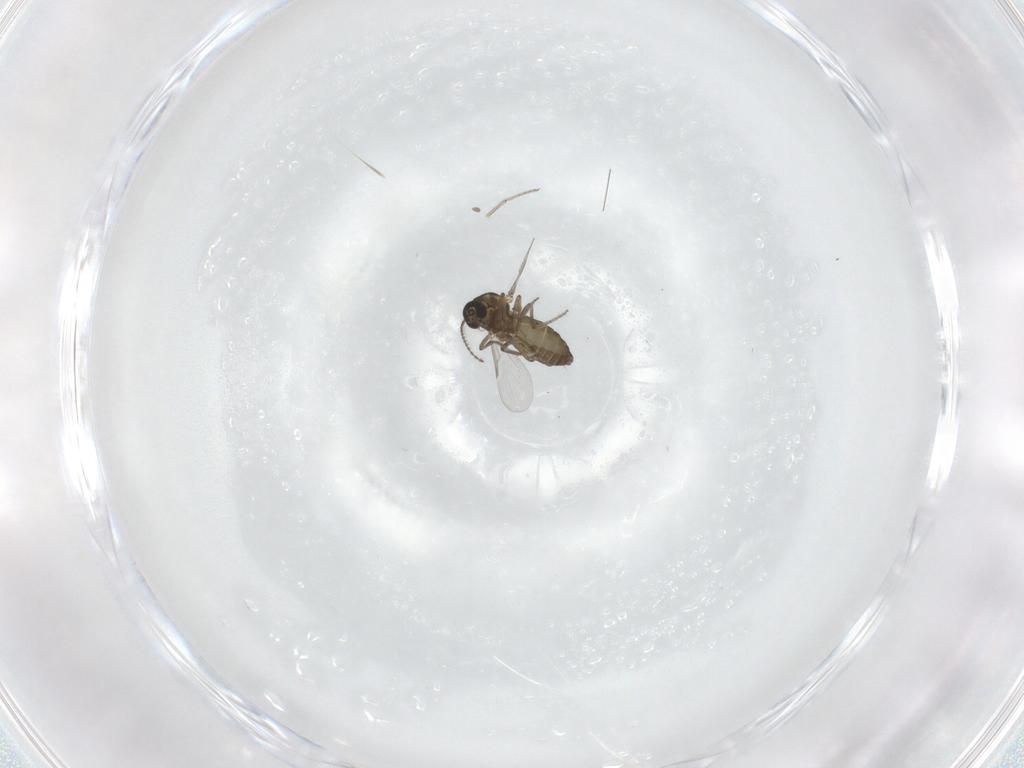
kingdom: Animalia
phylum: Arthropoda
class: Insecta
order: Diptera
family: Ceratopogonidae
